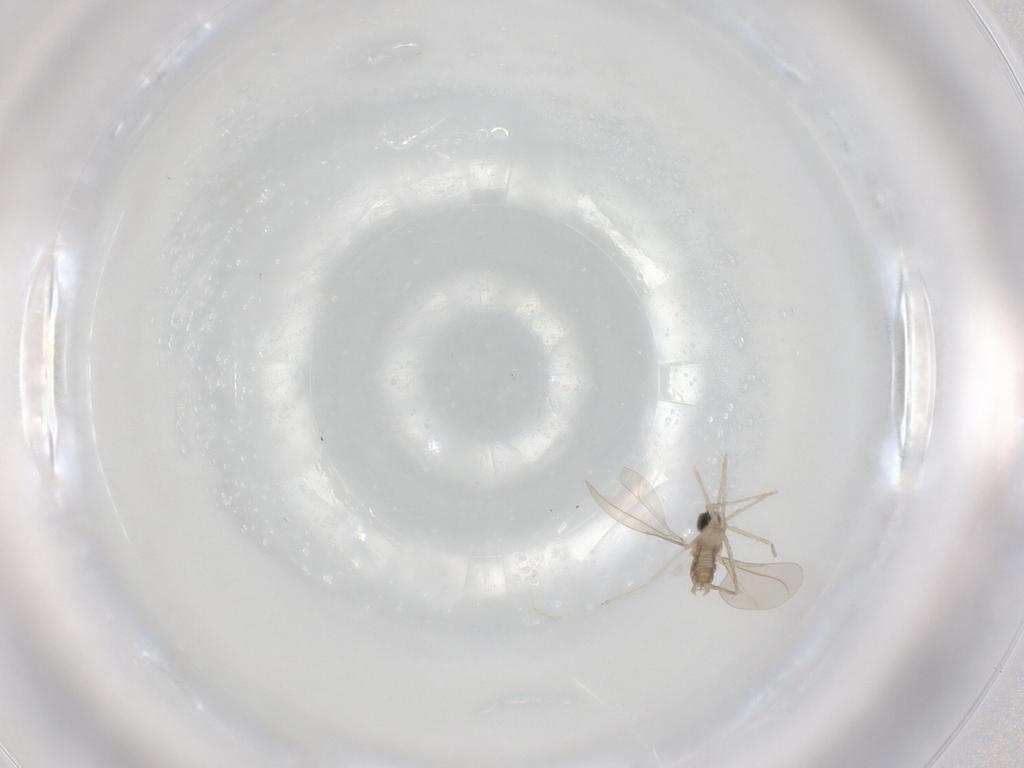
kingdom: Animalia
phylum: Arthropoda
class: Insecta
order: Diptera
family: Cecidomyiidae
